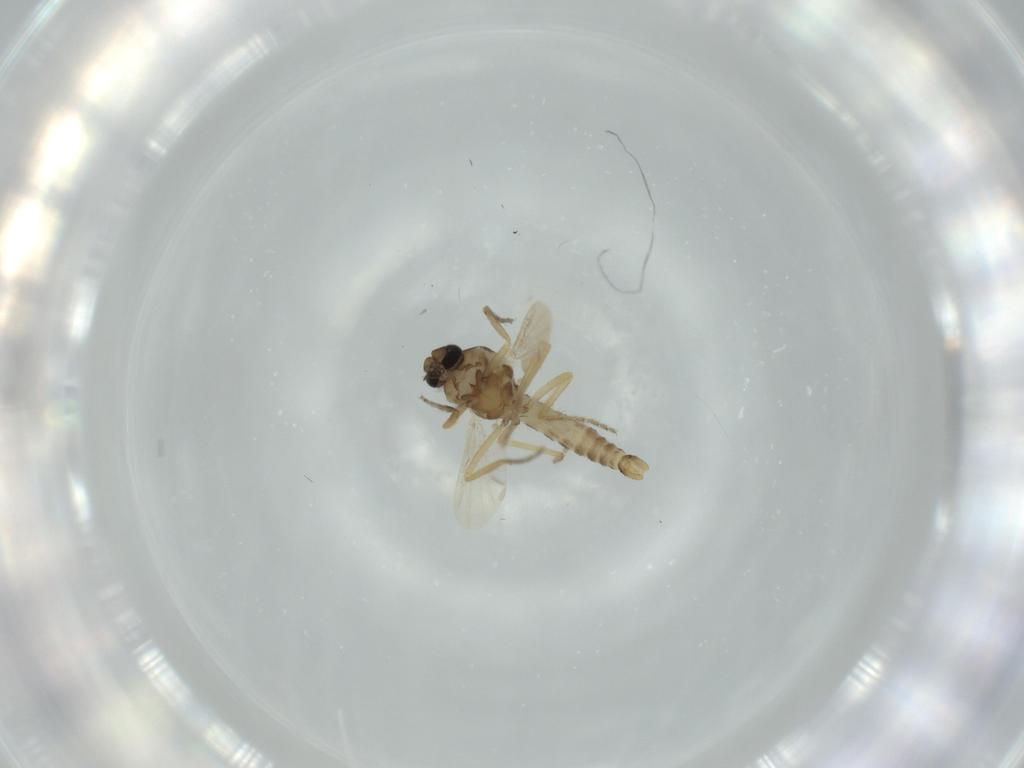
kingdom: Animalia
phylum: Arthropoda
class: Insecta
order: Diptera
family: Ceratopogonidae
